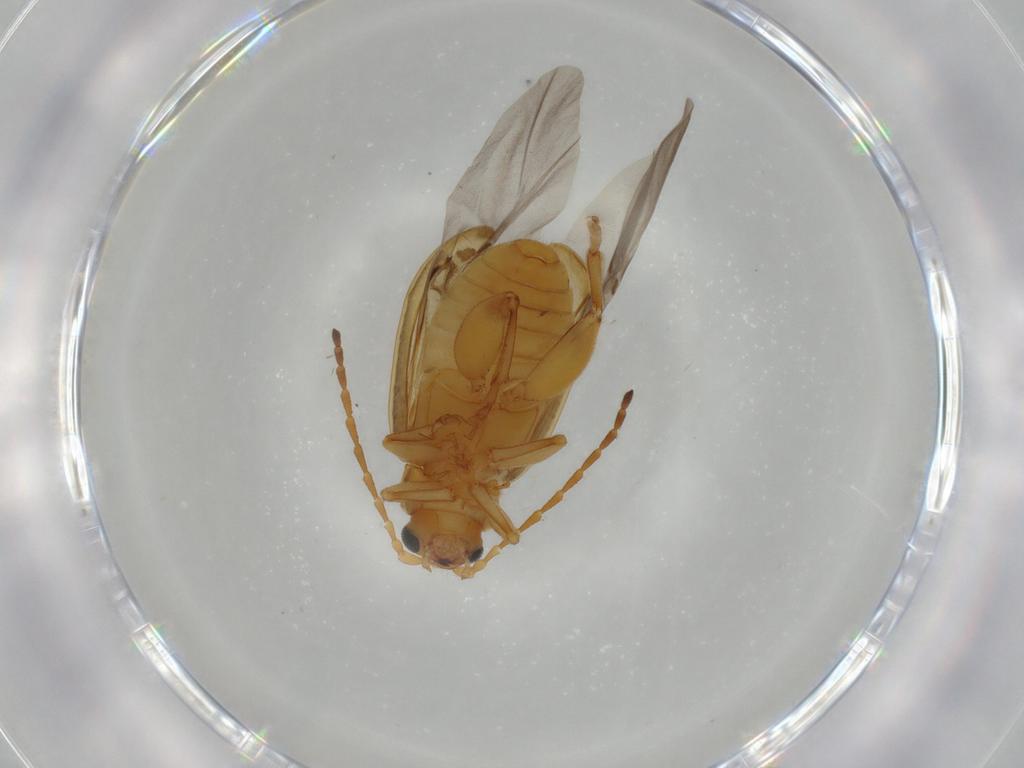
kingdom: Animalia
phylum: Arthropoda
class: Insecta
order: Coleoptera
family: Chrysomelidae
